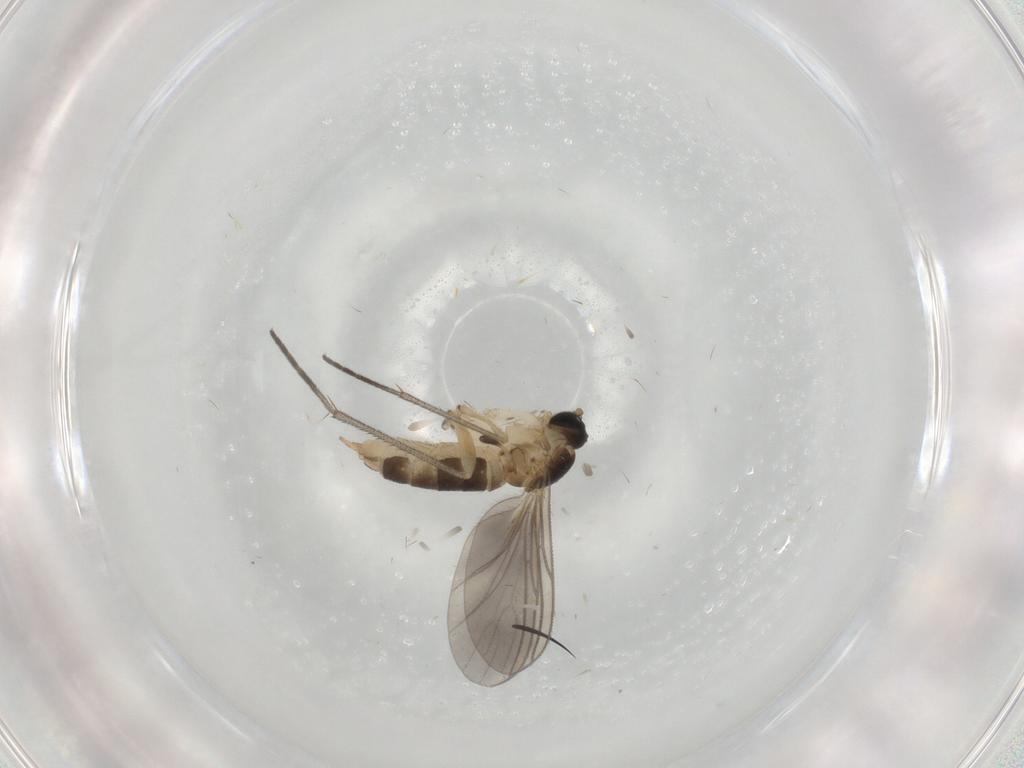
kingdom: Animalia
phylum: Arthropoda
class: Insecta
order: Diptera
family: Sciaridae
